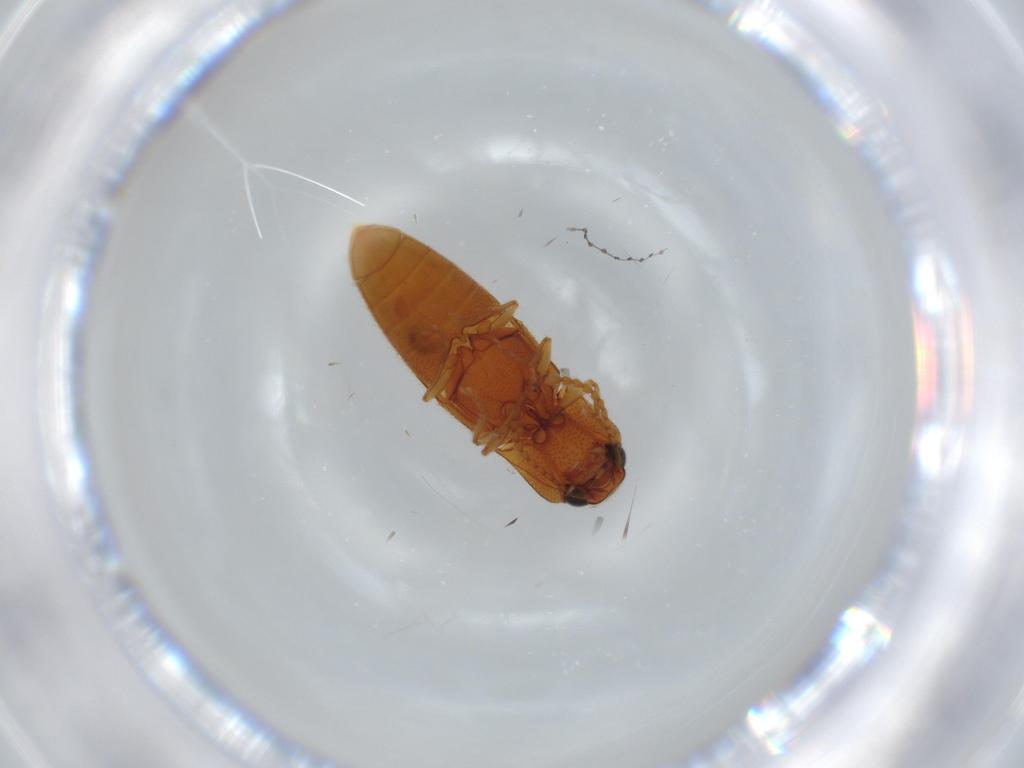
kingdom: Animalia
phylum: Arthropoda
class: Insecta
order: Coleoptera
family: Elateridae
